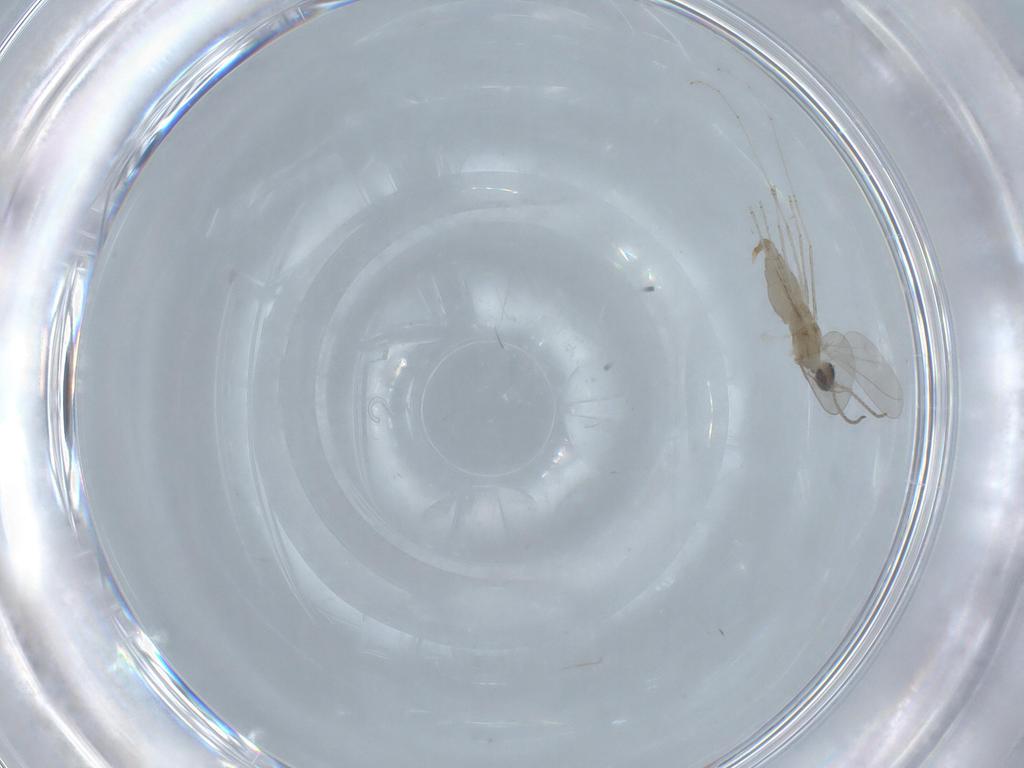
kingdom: Animalia
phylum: Arthropoda
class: Insecta
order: Diptera
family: Cecidomyiidae
